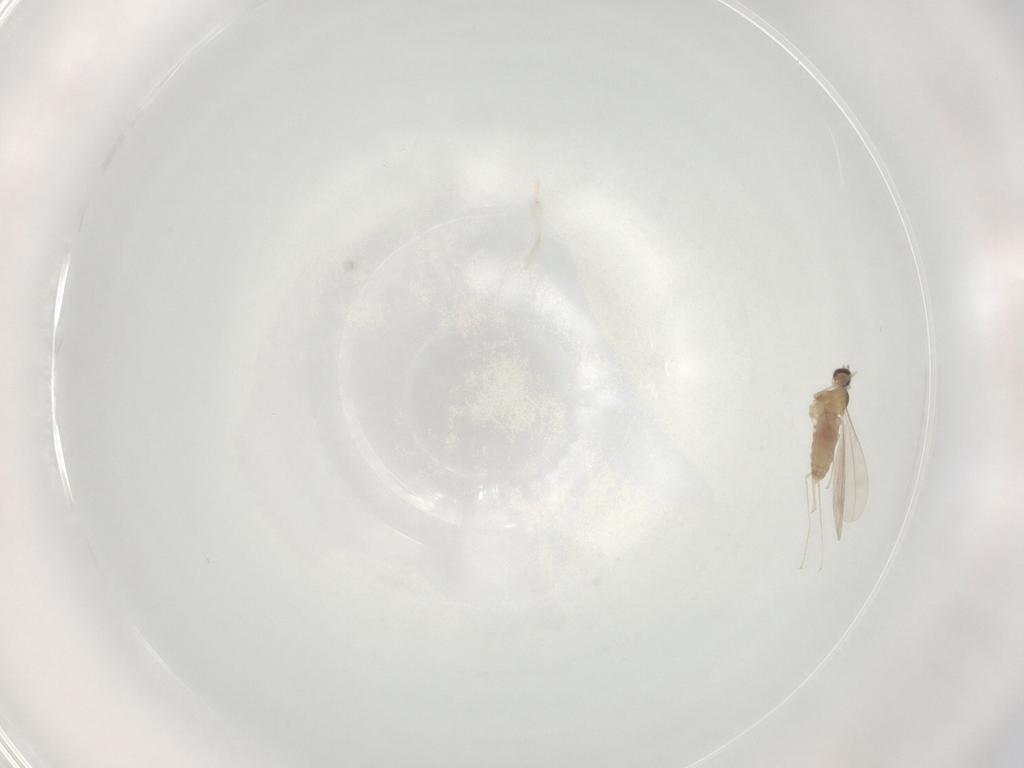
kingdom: Animalia
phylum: Arthropoda
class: Insecta
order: Diptera
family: Cecidomyiidae
